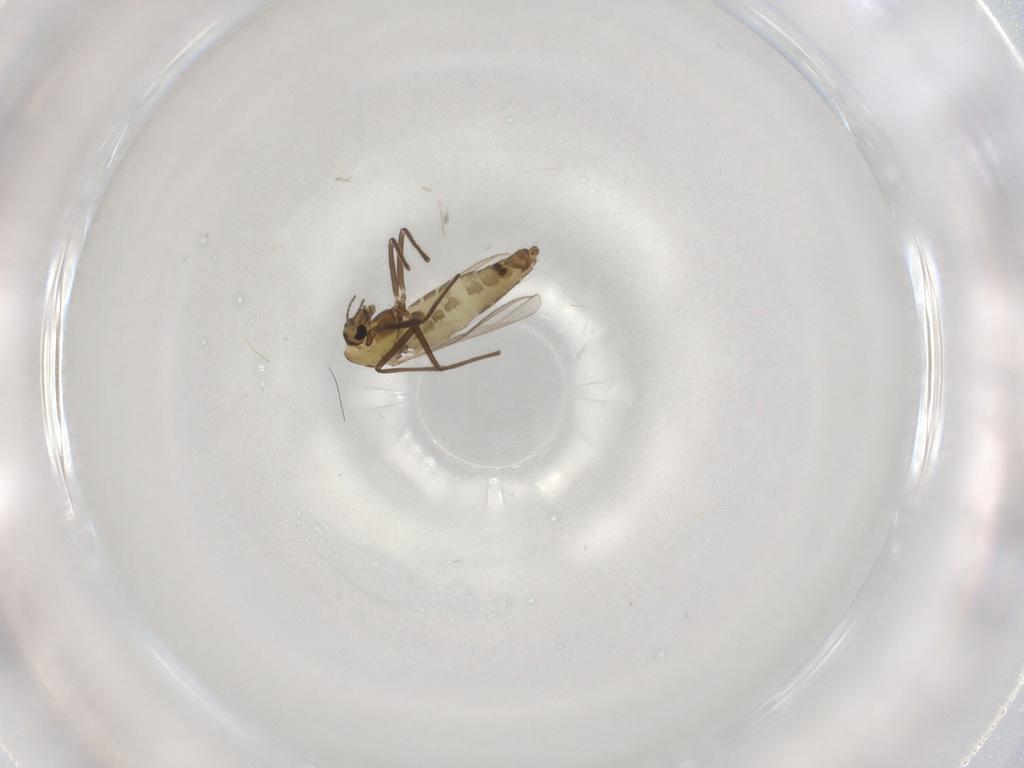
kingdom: Animalia
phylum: Arthropoda
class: Insecta
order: Diptera
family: Chironomidae
